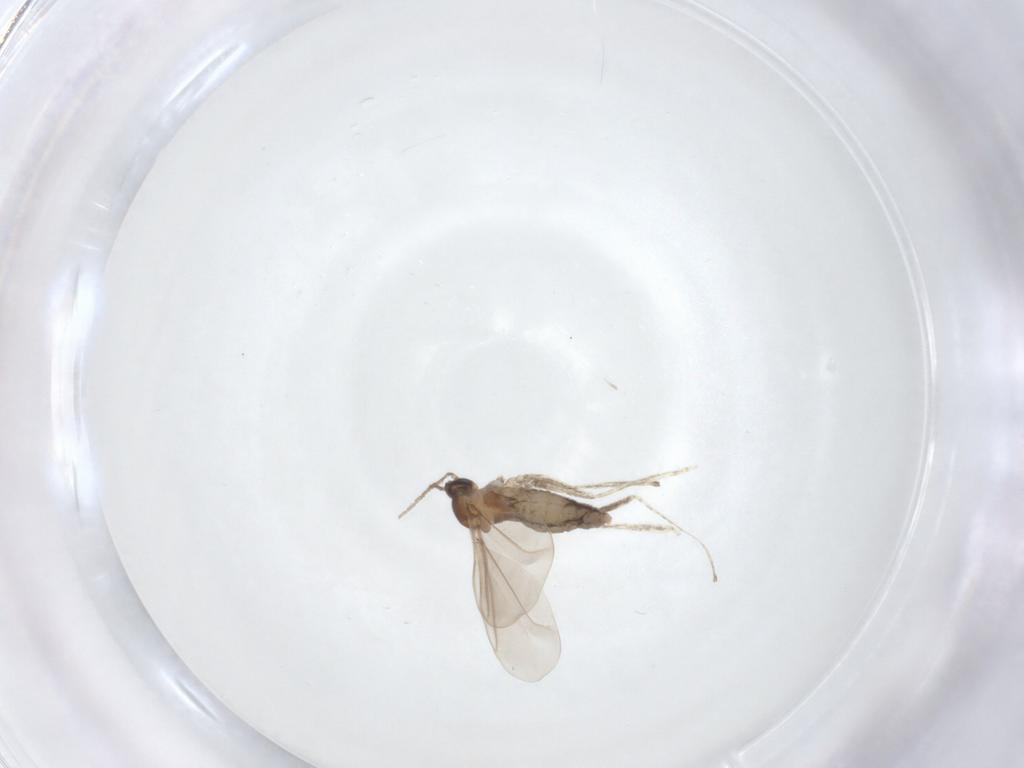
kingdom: Animalia
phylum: Arthropoda
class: Insecta
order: Diptera
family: Cecidomyiidae
